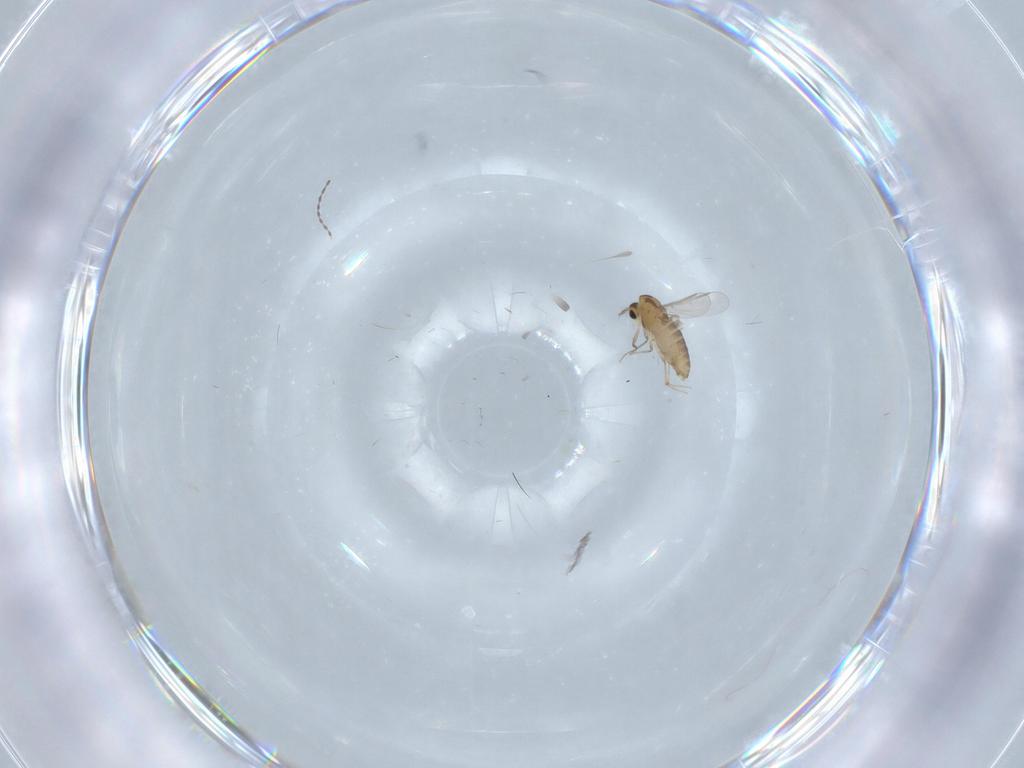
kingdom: Animalia
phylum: Arthropoda
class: Insecta
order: Diptera
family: Chironomidae
